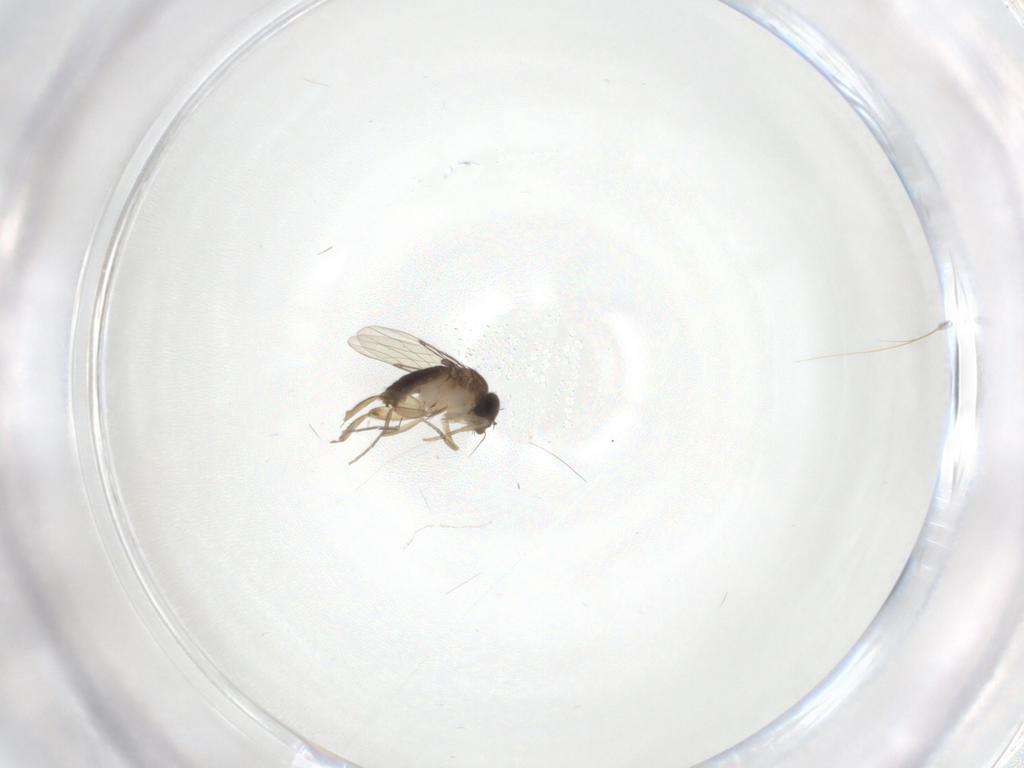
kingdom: Animalia
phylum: Arthropoda
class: Insecta
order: Diptera
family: Phoridae
